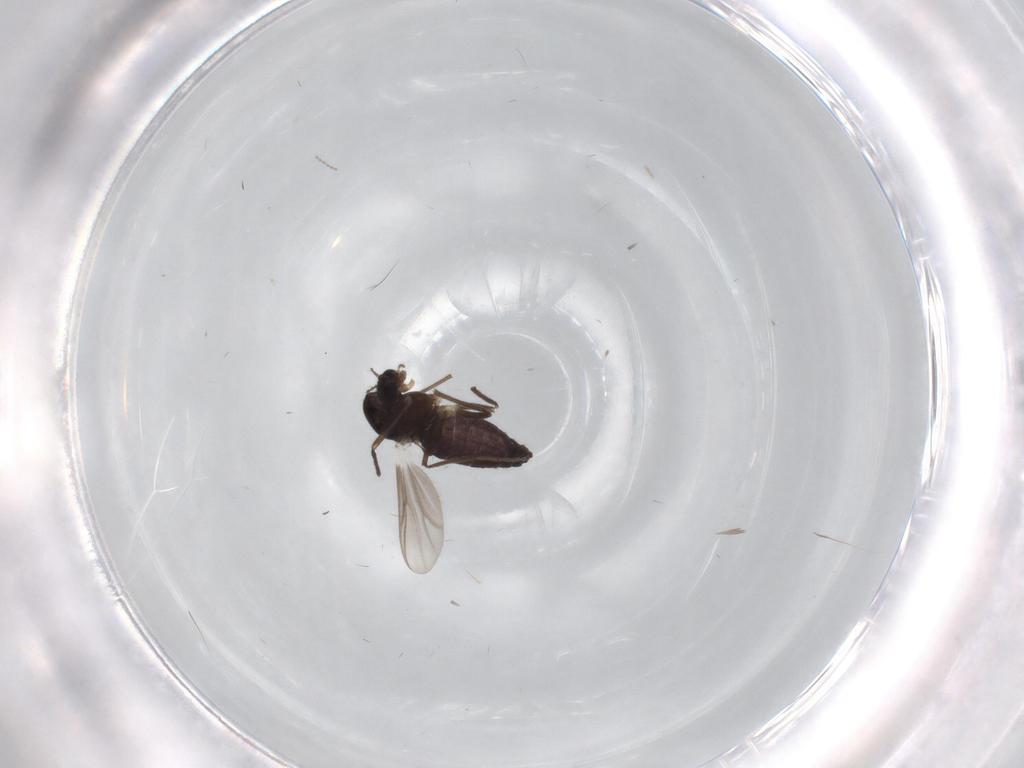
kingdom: Animalia
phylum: Arthropoda
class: Insecta
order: Diptera
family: Chironomidae
